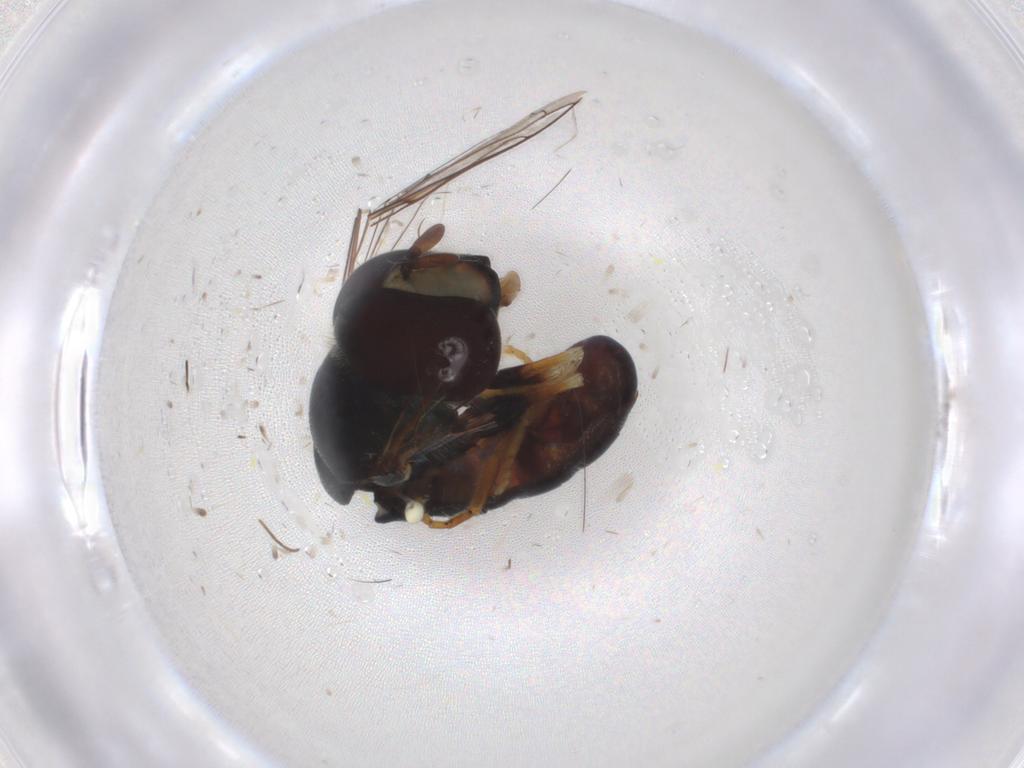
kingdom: Animalia
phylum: Arthropoda
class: Insecta
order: Diptera
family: Syrphidae
